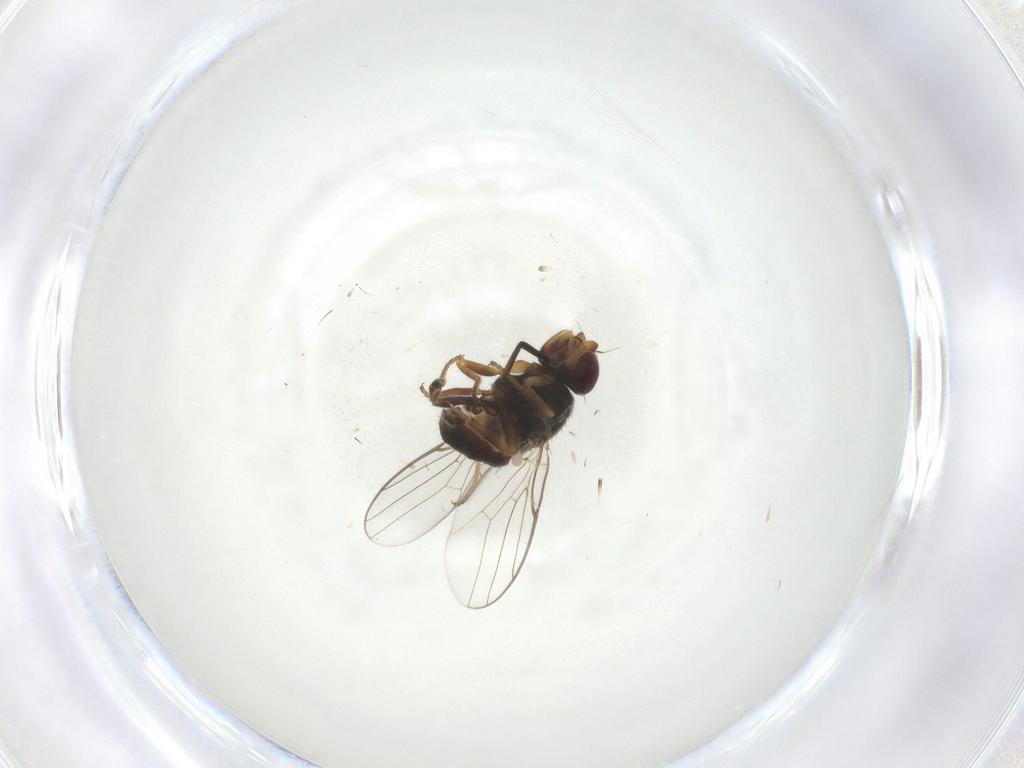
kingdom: Animalia
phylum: Arthropoda
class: Insecta
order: Diptera
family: Chloropidae
